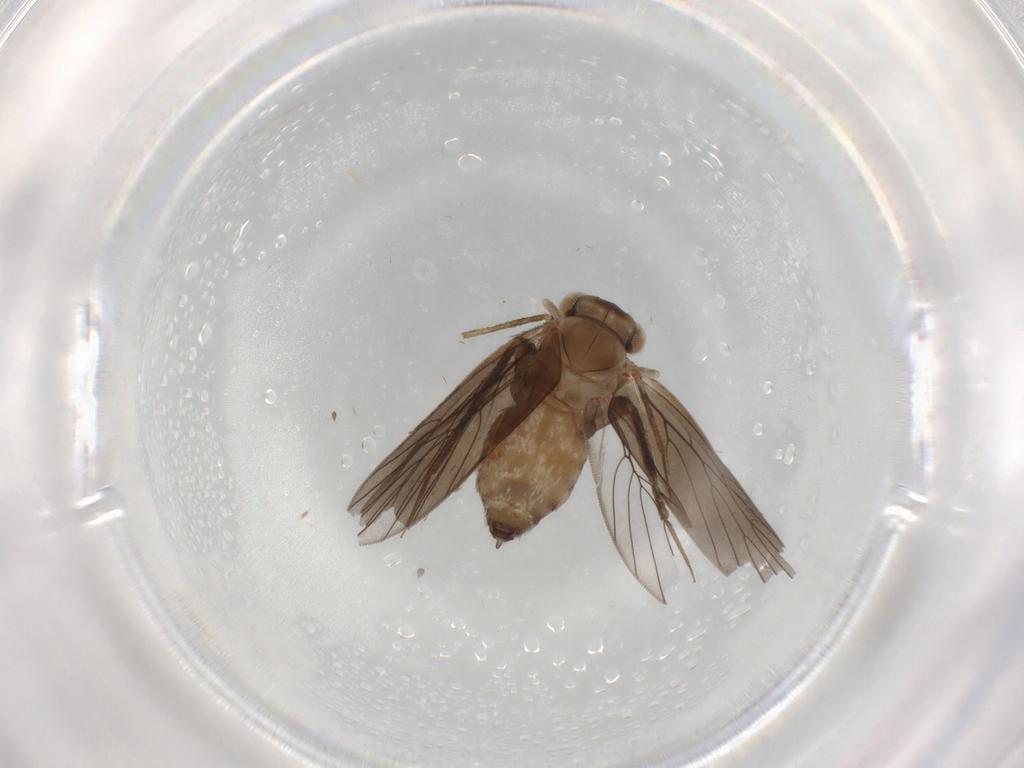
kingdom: Animalia
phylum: Arthropoda
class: Insecta
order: Psocodea
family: Lepidopsocidae
